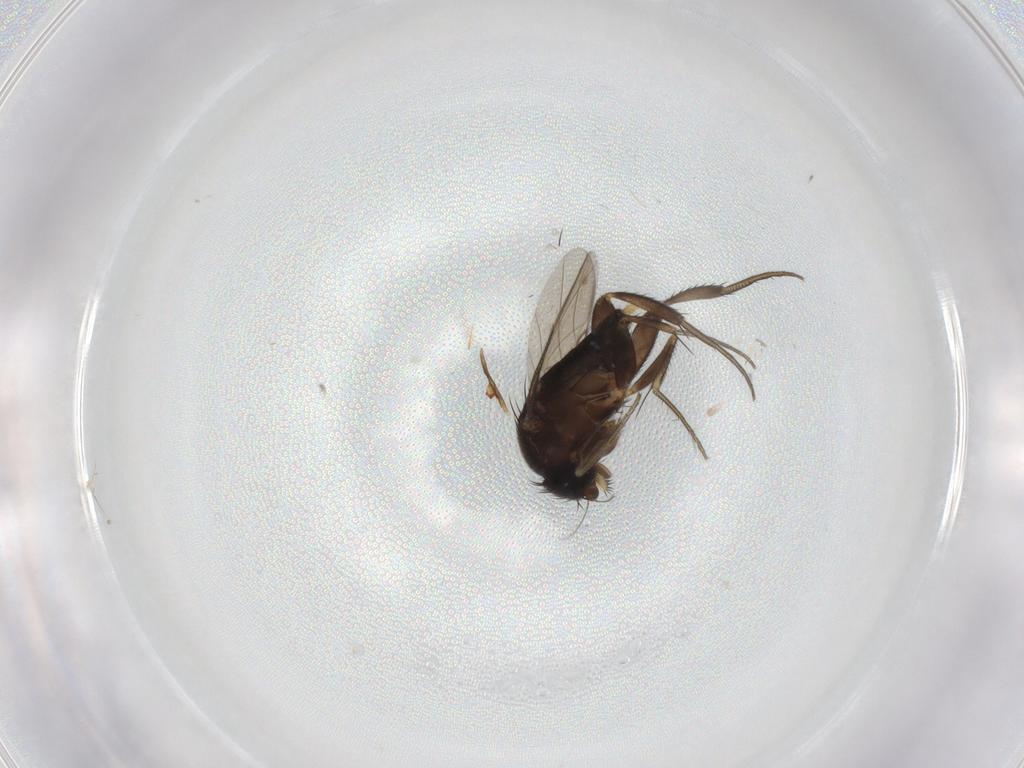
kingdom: Animalia
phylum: Arthropoda
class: Insecta
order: Diptera
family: Phoridae
